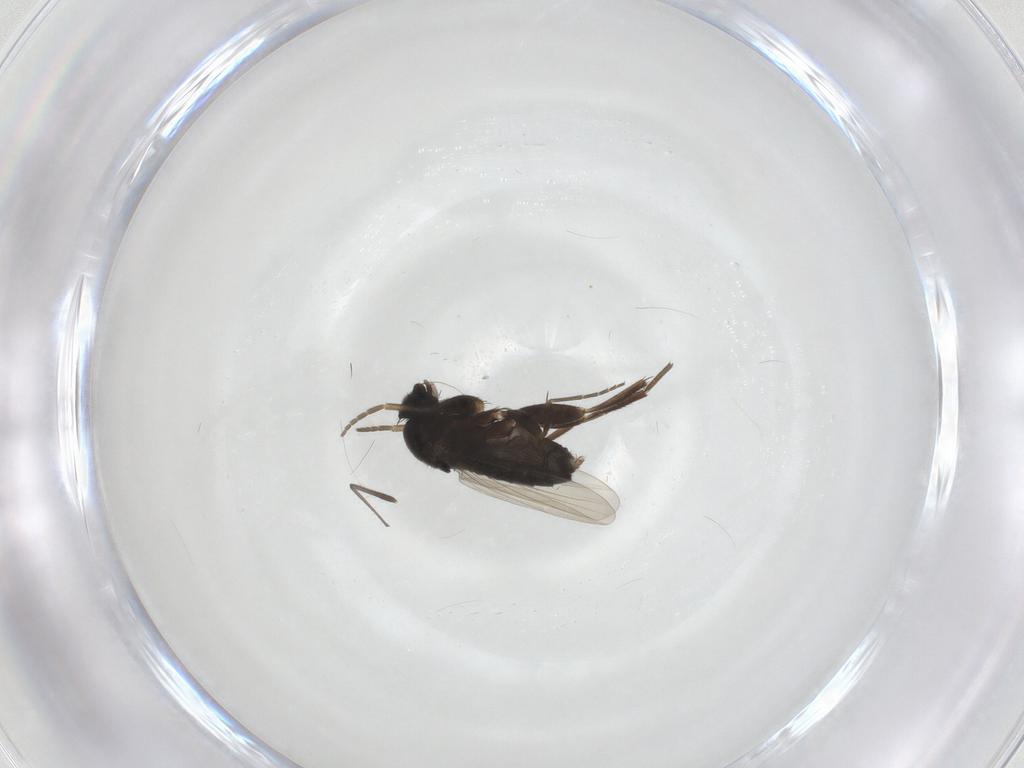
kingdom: Animalia
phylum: Arthropoda
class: Insecta
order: Diptera
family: Phoridae
